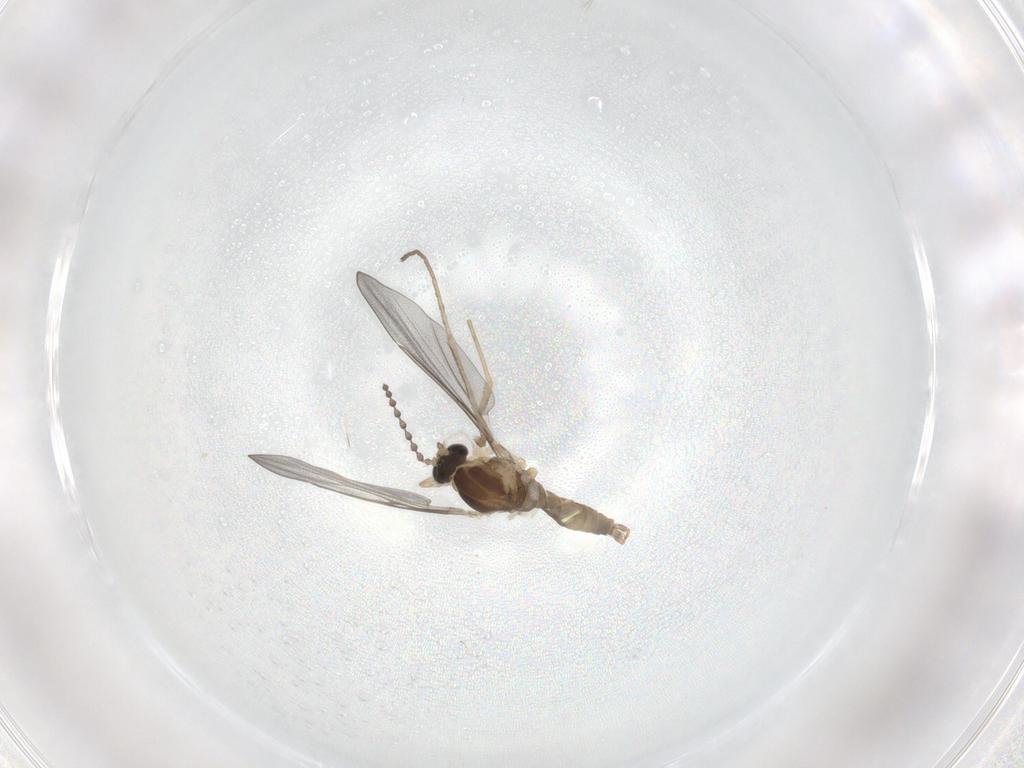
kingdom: Animalia
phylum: Arthropoda
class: Insecta
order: Diptera
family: Cecidomyiidae
